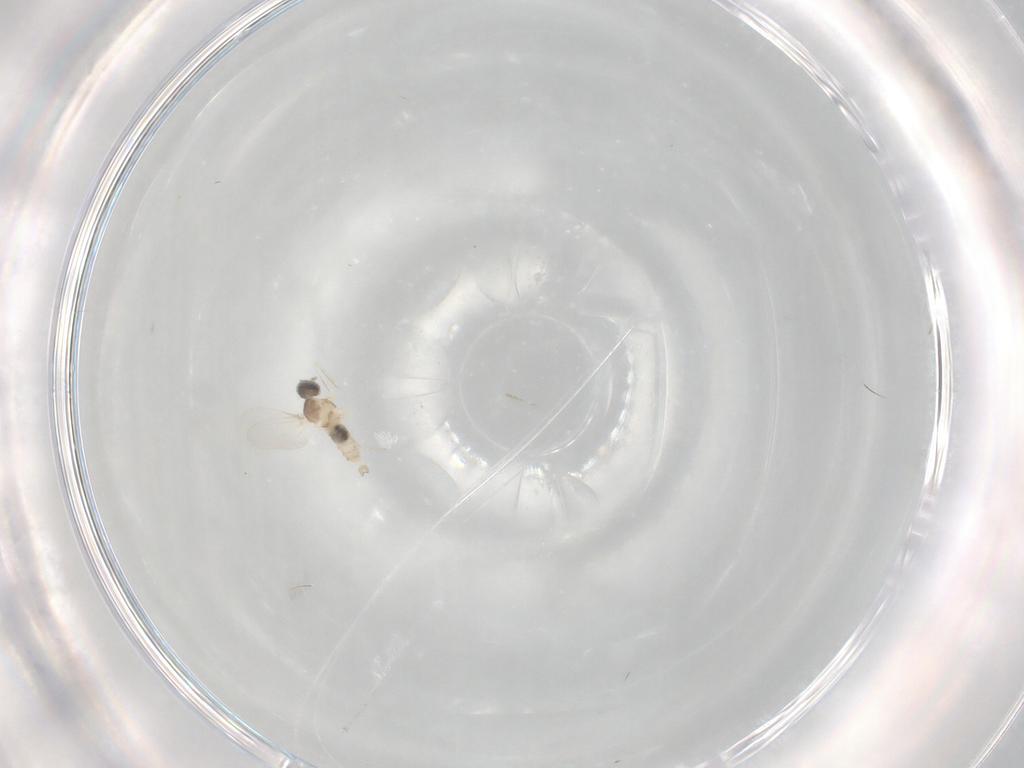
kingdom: Animalia
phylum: Arthropoda
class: Insecta
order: Diptera
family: Cecidomyiidae
